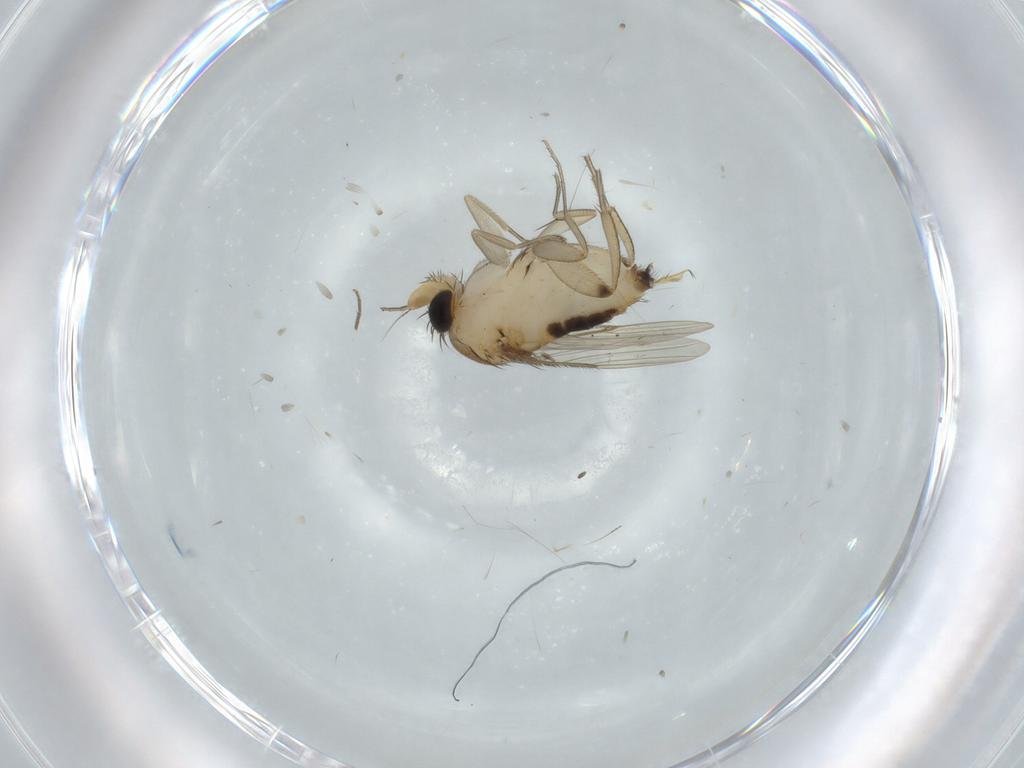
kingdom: Animalia
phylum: Arthropoda
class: Insecta
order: Diptera
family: Phoridae
